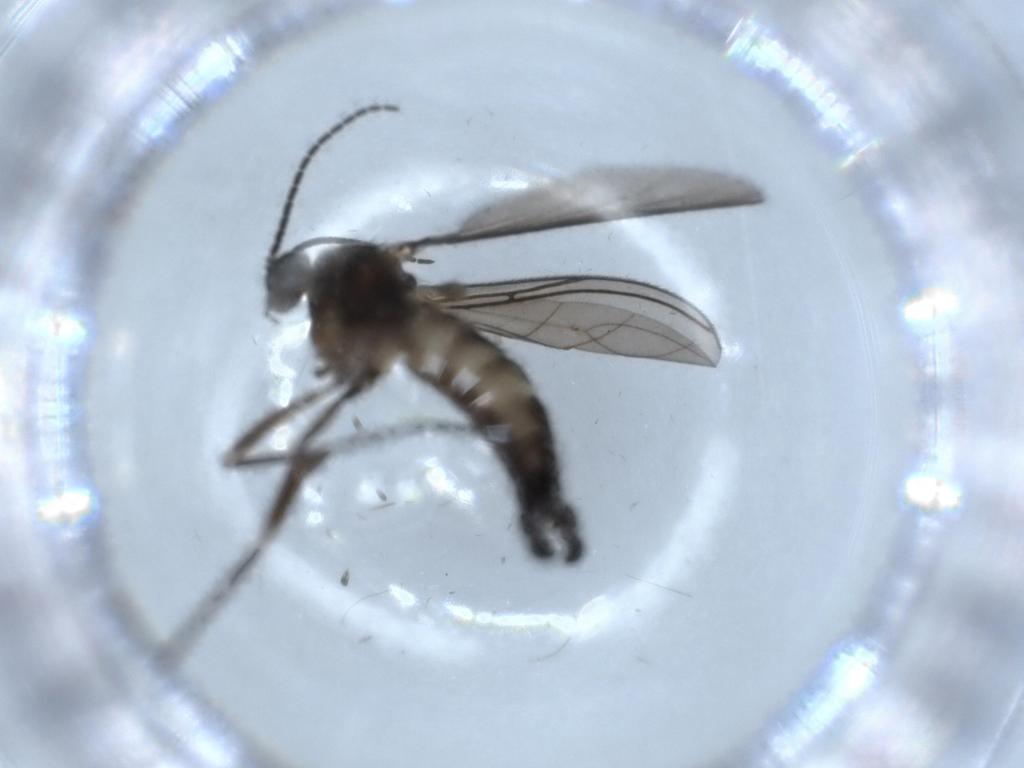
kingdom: Animalia
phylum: Arthropoda
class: Insecta
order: Diptera
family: Sciaridae
